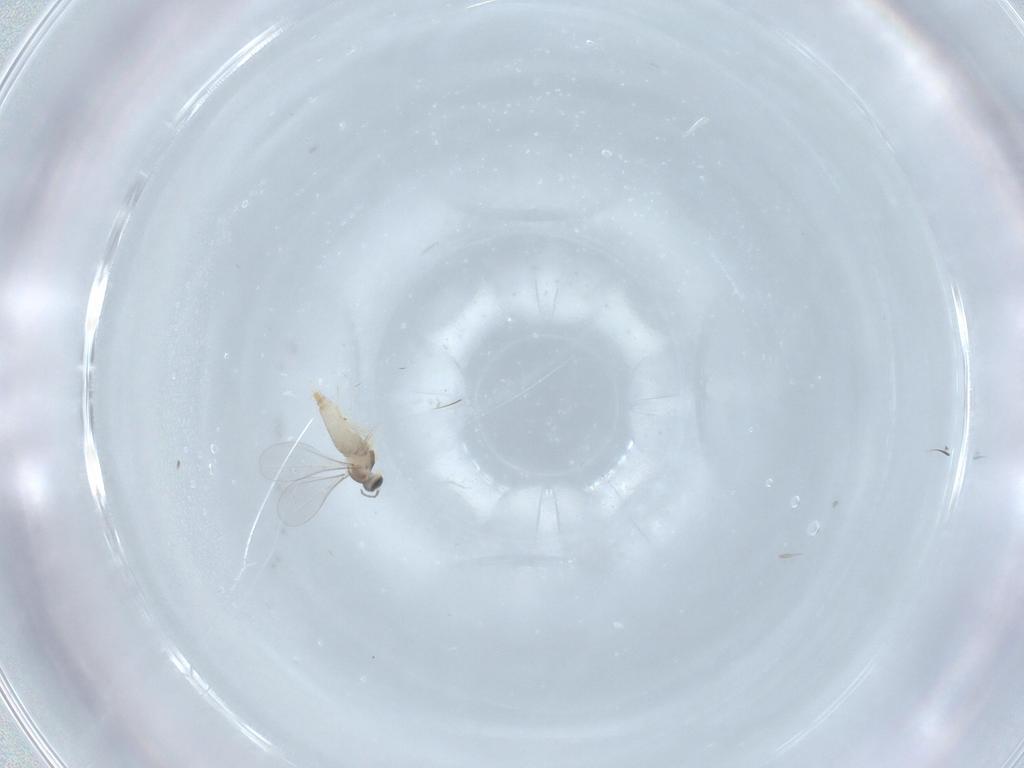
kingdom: Animalia
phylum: Arthropoda
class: Insecta
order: Diptera
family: Cecidomyiidae
